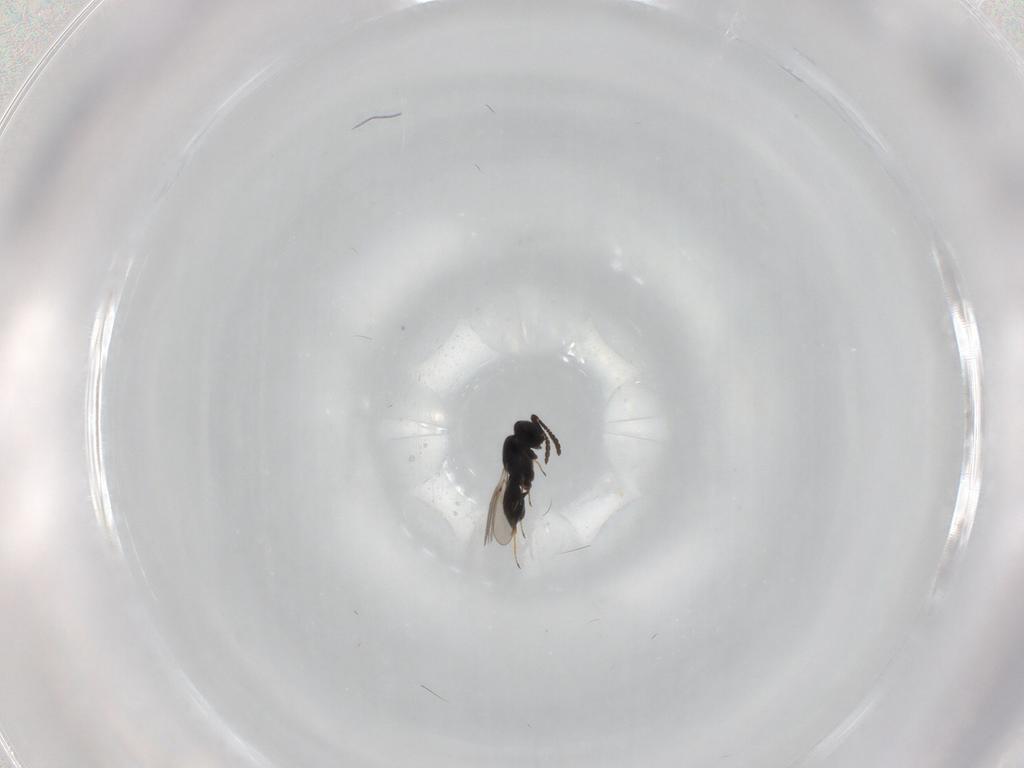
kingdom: Animalia
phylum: Arthropoda
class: Insecta
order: Hymenoptera
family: Scelionidae
